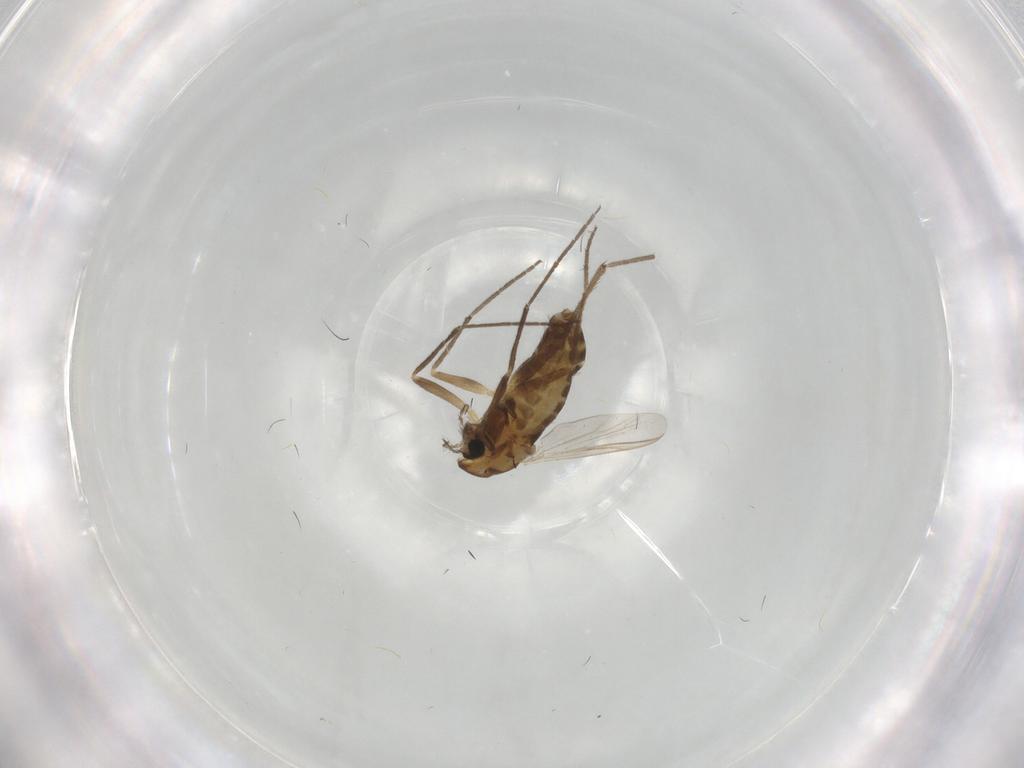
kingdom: Animalia
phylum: Arthropoda
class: Insecta
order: Diptera
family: Chironomidae
